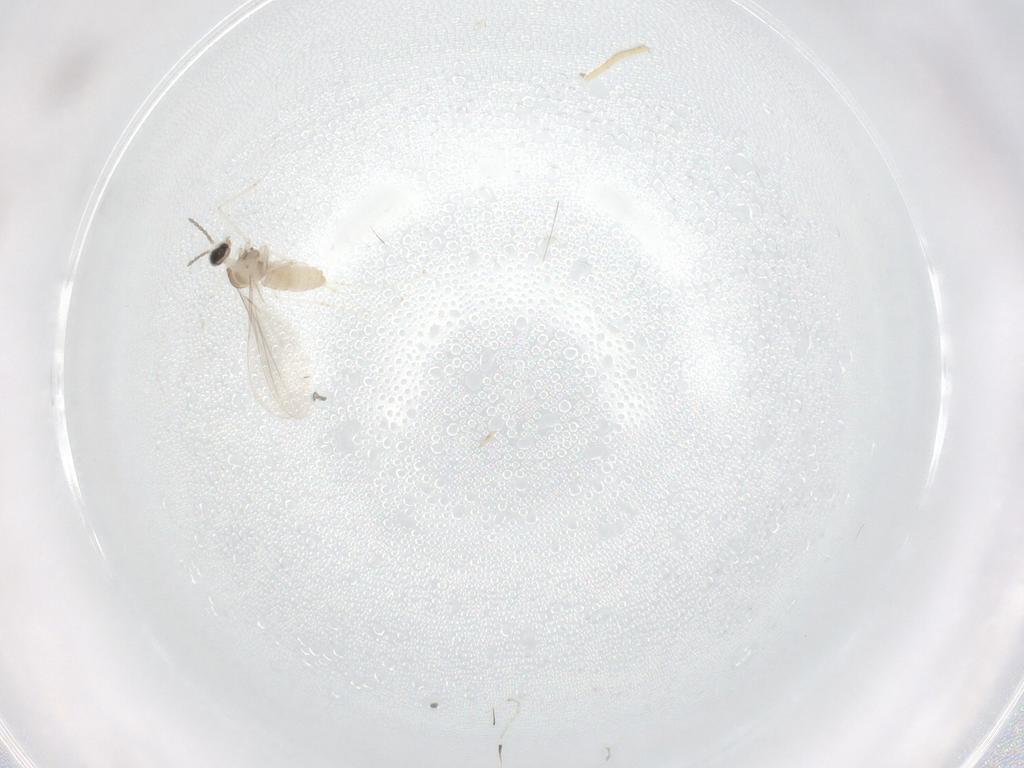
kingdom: Animalia
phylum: Arthropoda
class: Insecta
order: Diptera
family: Cecidomyiidae
